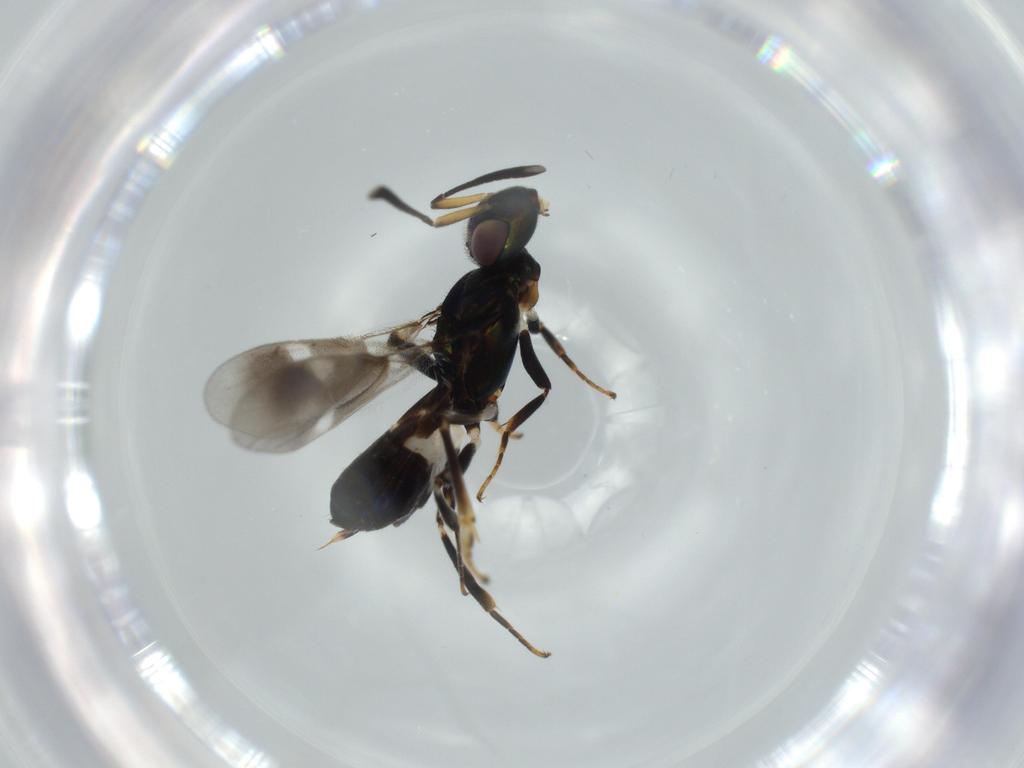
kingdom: Animalia
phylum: Arthropoda
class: Insecta
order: Hymenoptera
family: Eupelmidae
